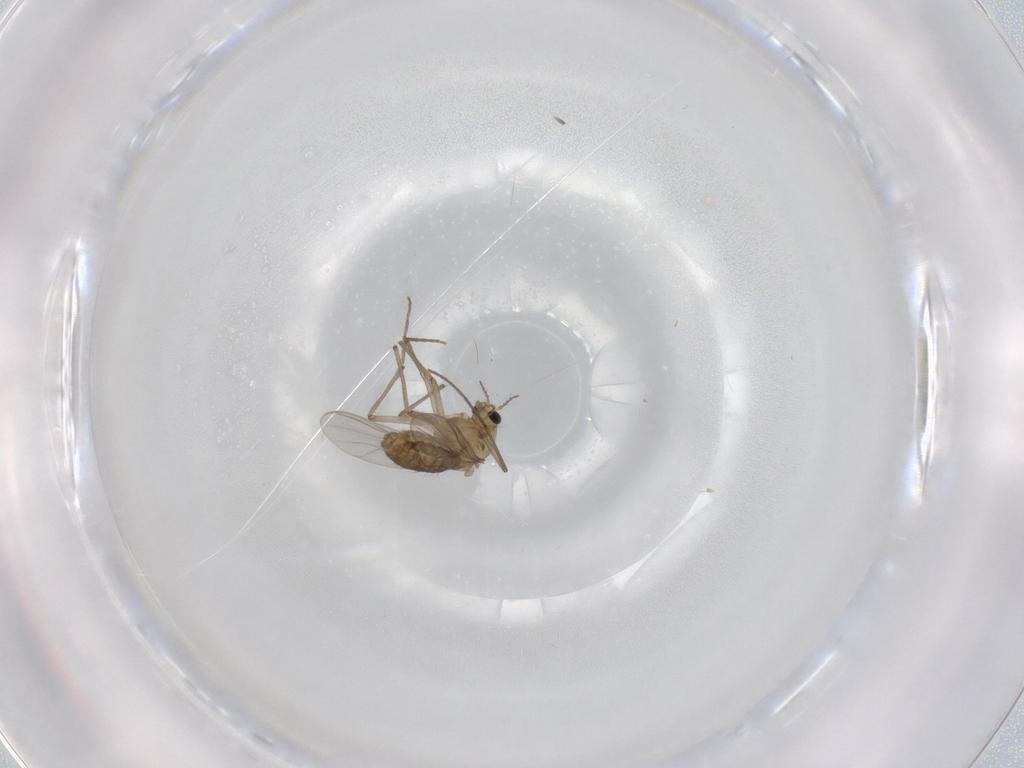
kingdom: Animalia
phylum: Arthropoda
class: Insecta
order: Diptera
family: Chironomidae
